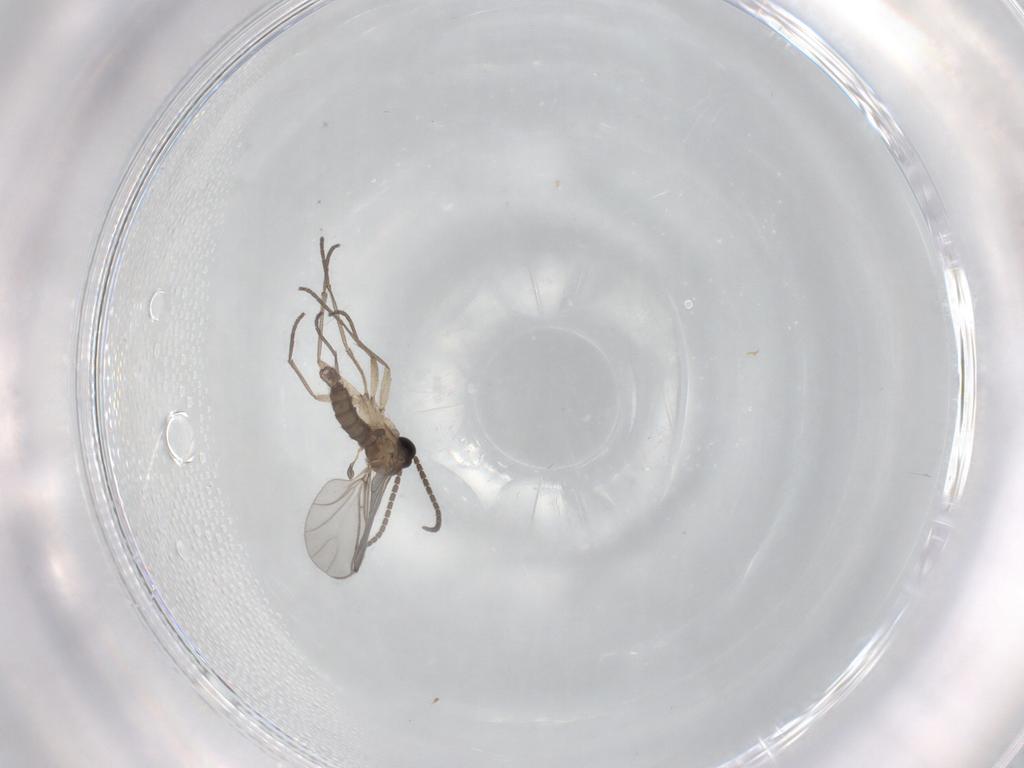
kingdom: Animalia
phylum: Arthropoda
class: Insecta
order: Diptera
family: Sciaridae
